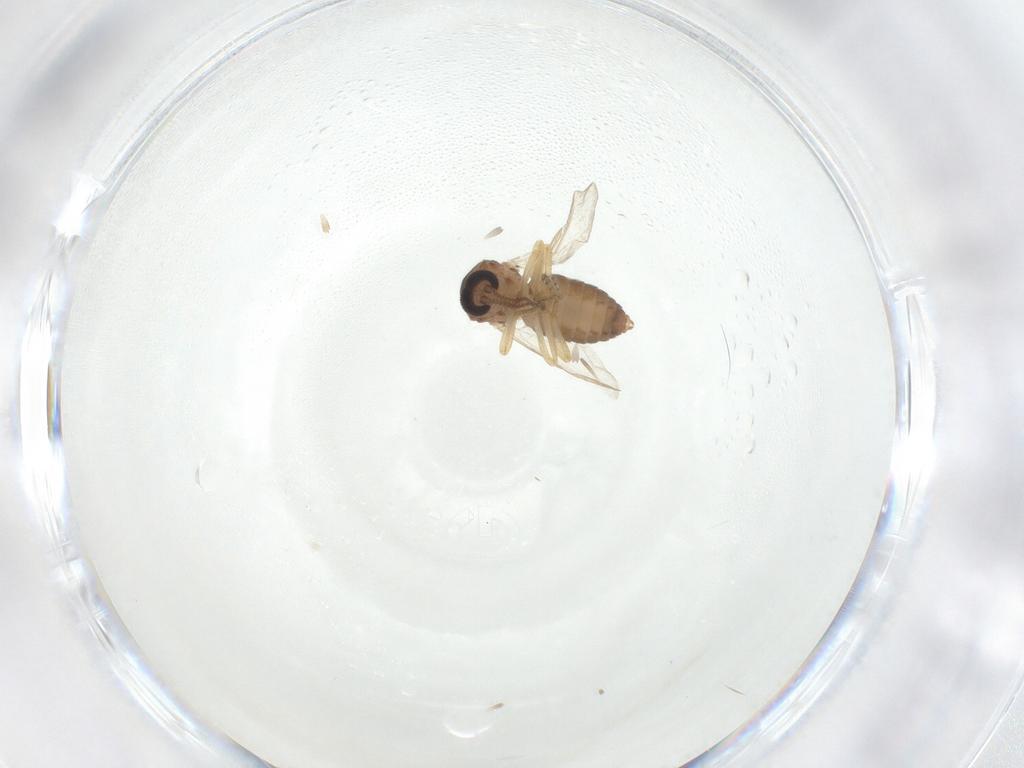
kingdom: Animalia
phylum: Arthropoda
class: Insecta
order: Diptera
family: Ceratopogonidae
